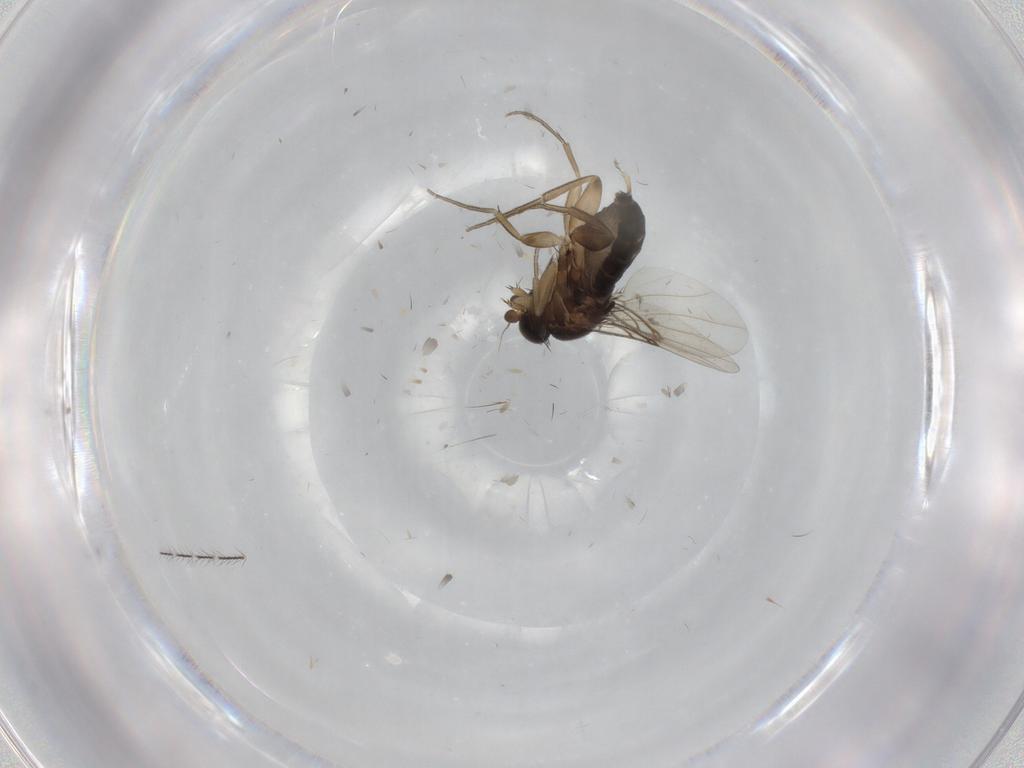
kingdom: Animalia
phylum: Arthropoda
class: Insecta
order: Diptera
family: Phoridae
